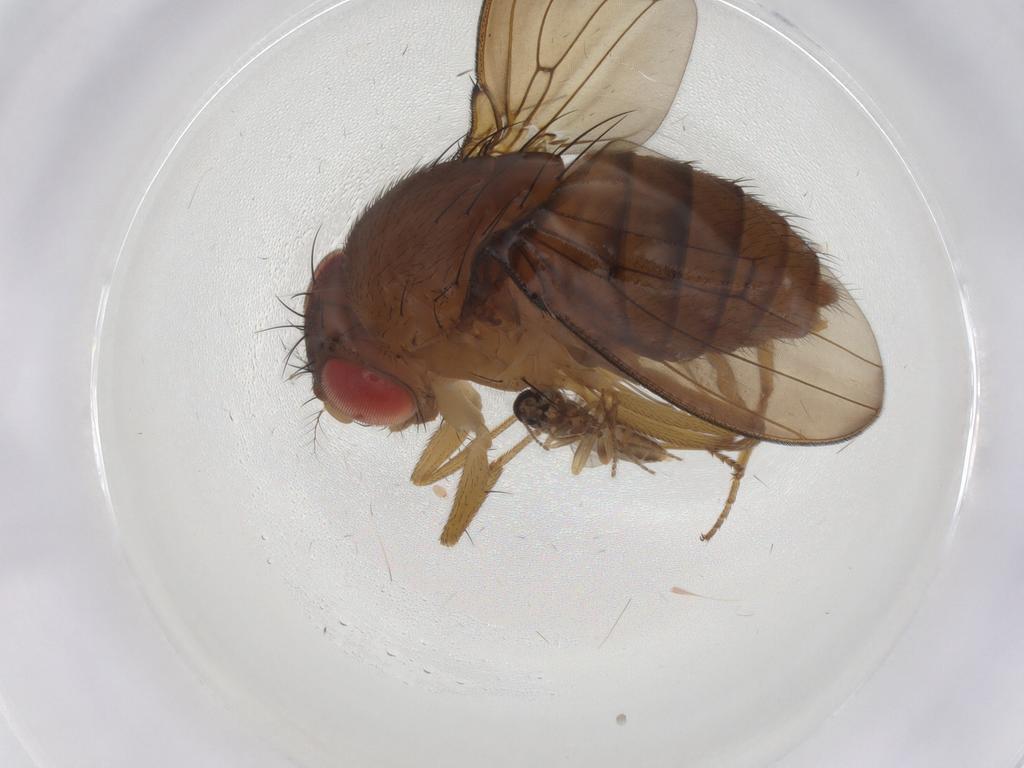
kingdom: Animalia
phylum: Arthropoda
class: Insecta
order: Diptera
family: Drosophilidae
